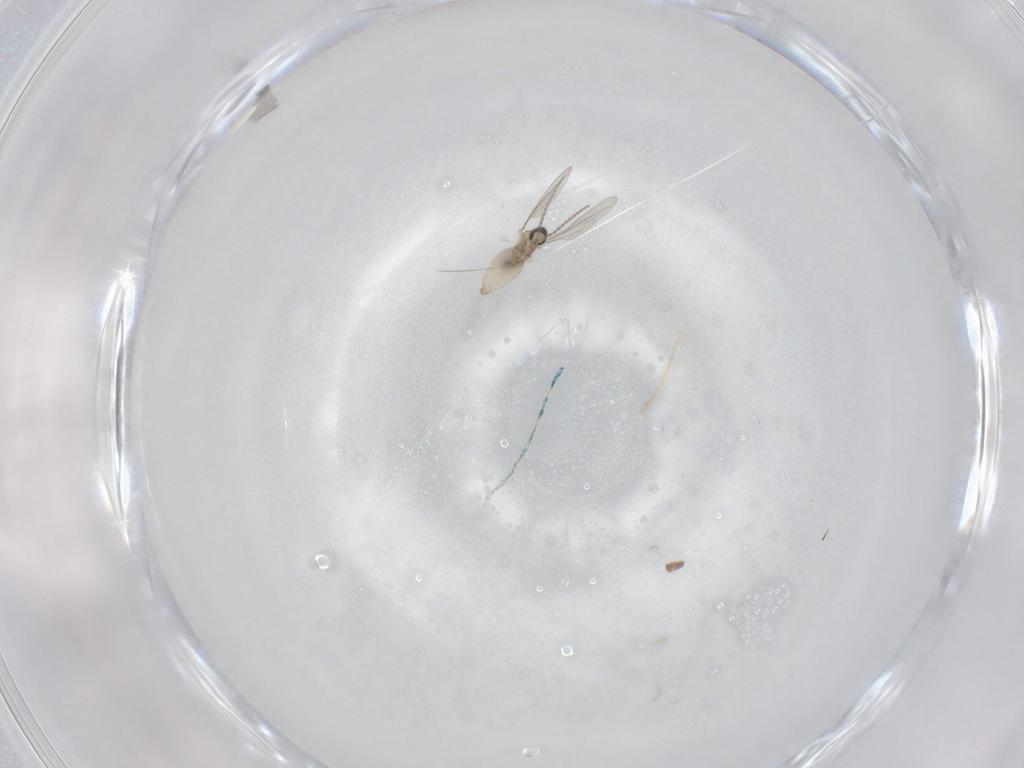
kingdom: Animalia
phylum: Arthropoda
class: Insecta
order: Diptera
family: Cecidomyiidae
